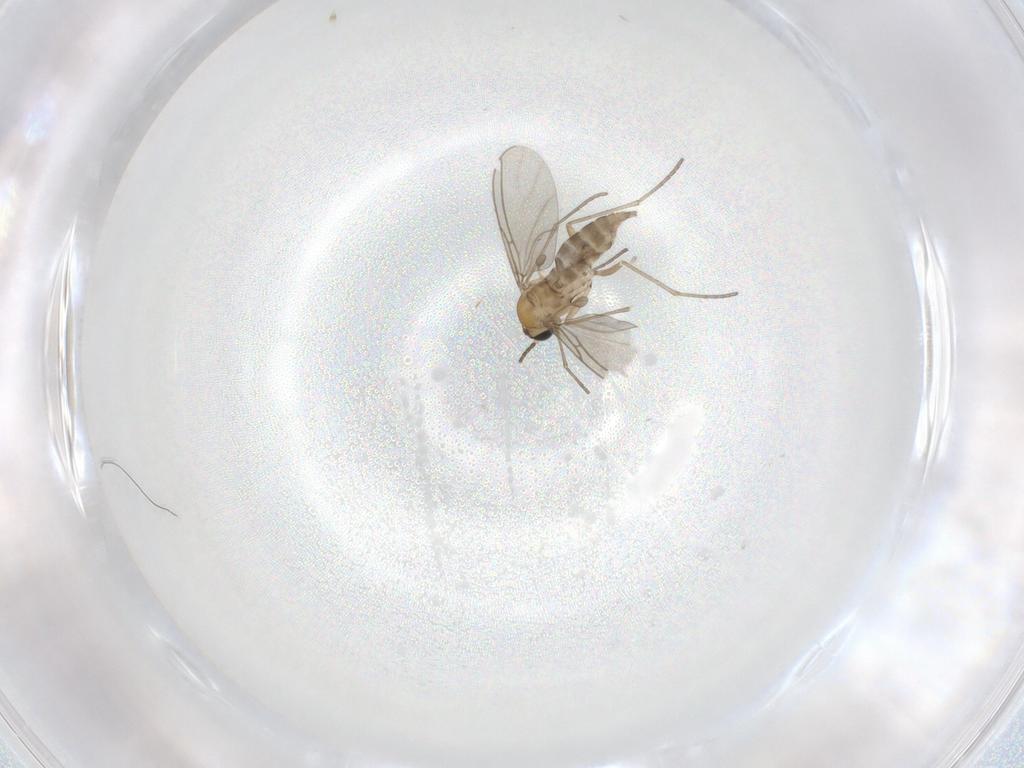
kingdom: Animalia
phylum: Arthropoda
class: Insecta
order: Diptera
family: Sciaridae
